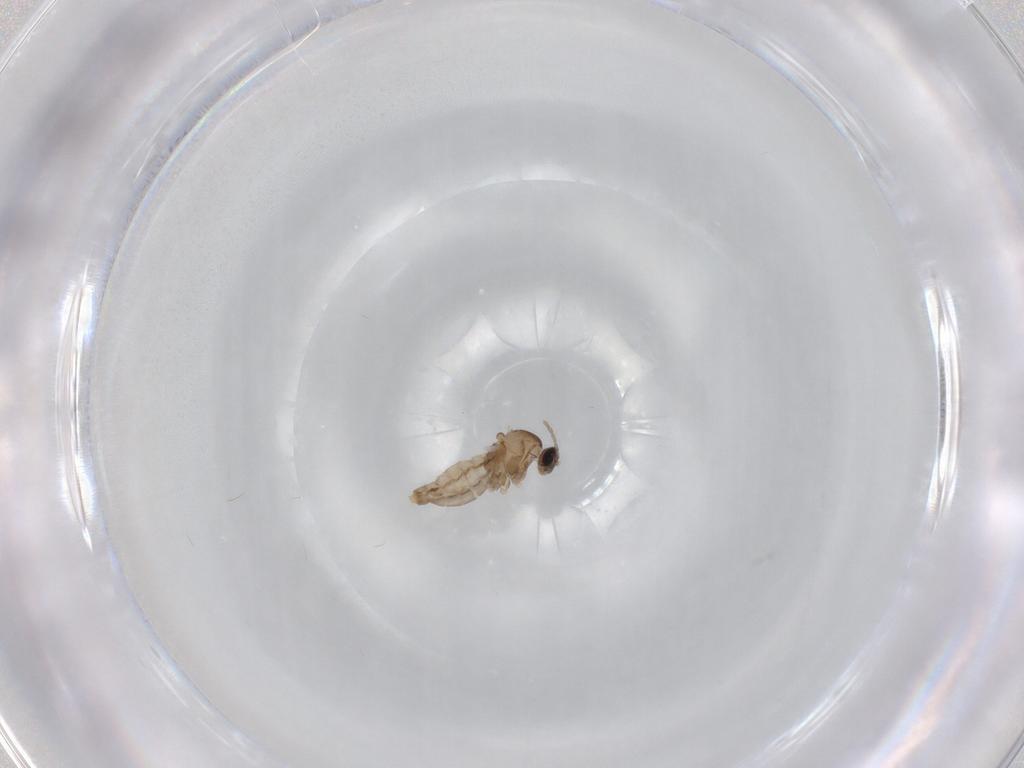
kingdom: Animalia
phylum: Arthropoda
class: Insecta
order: Diptera
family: Cecidomyiidae
